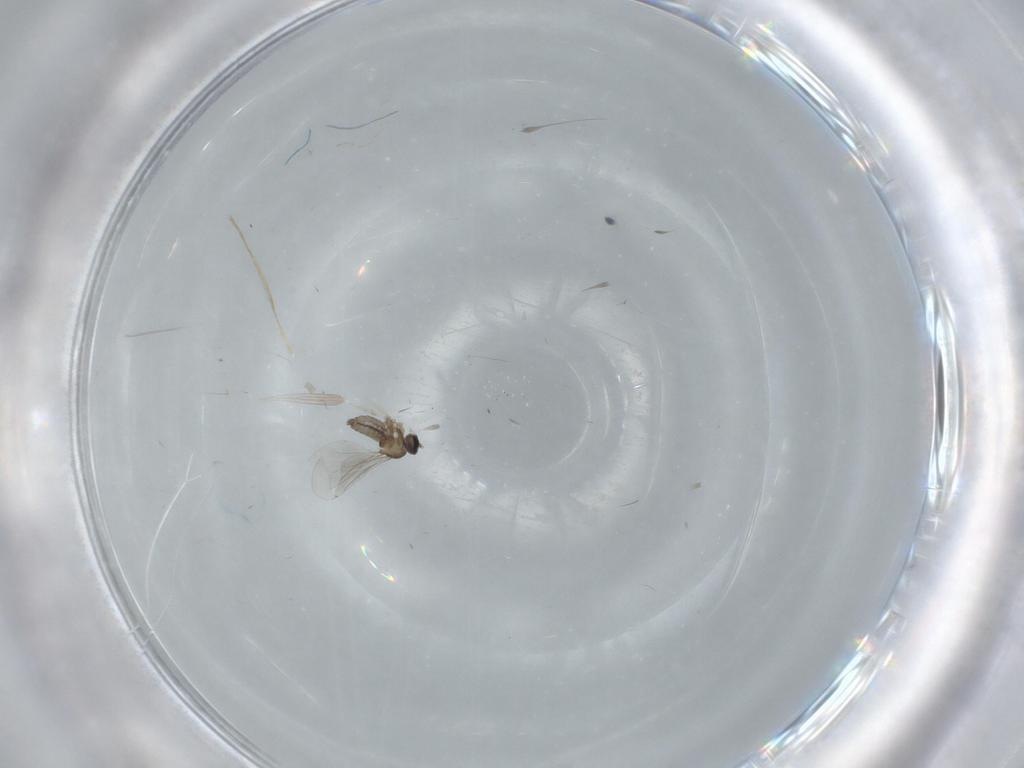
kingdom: Animalia
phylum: Arthropoda
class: Insecta
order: Diptera
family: Cecidomyiidae
